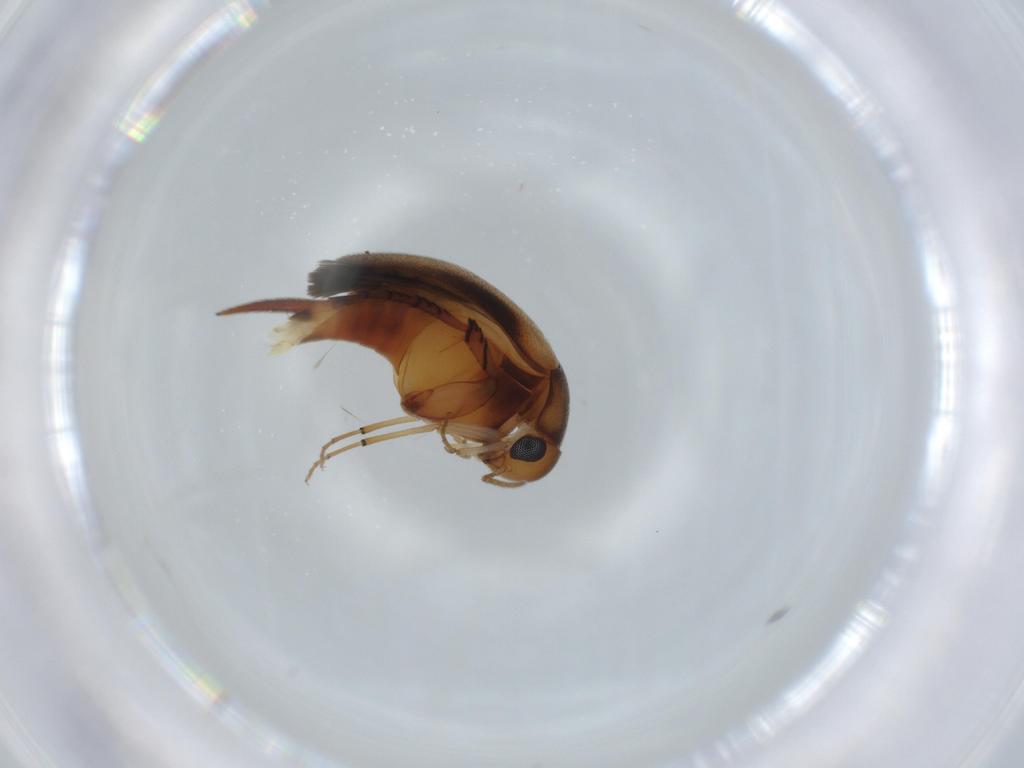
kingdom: Animalia
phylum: Arthropoda
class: Insecta
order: Coleoptera
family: Mordellidae
